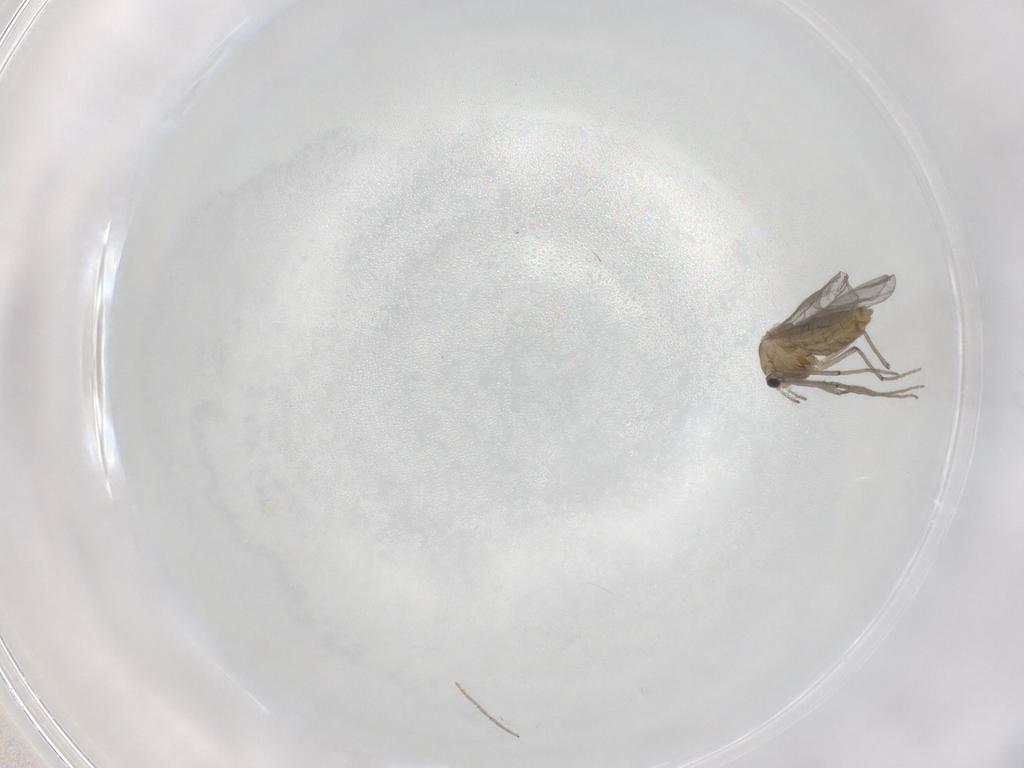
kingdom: Animalia
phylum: Arthropoda
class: Insecta
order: Diptera
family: Chironomidae
